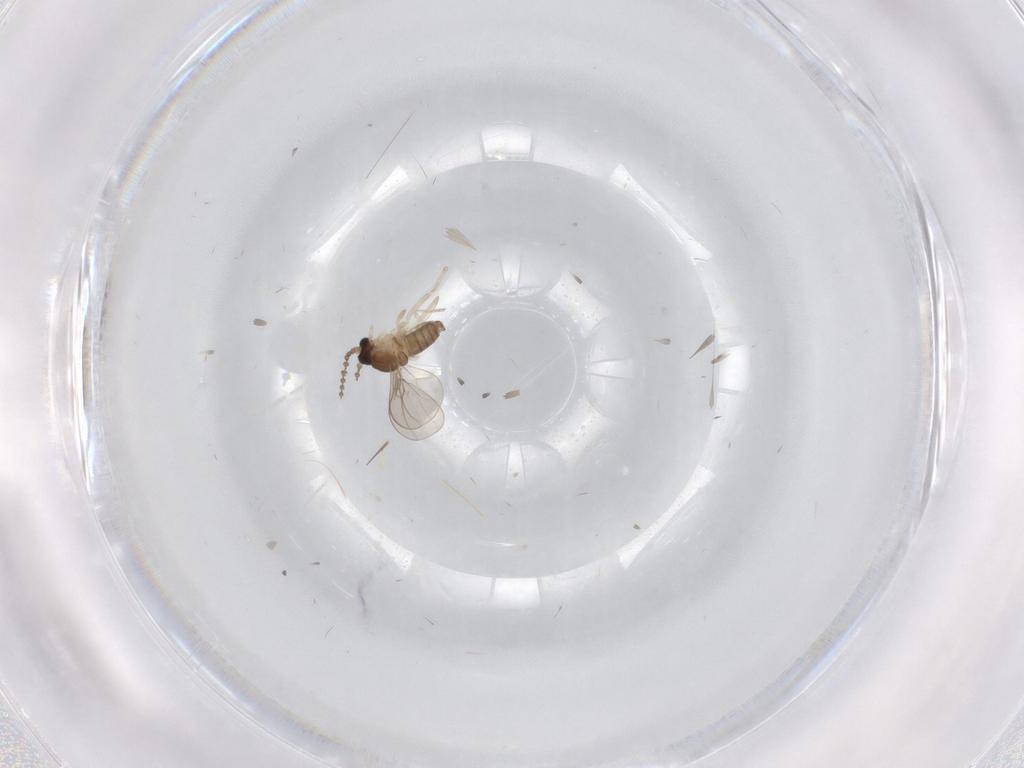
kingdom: Animalia
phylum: Arthropoda
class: Insecta
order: Diptera
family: Cecidomyiidae
